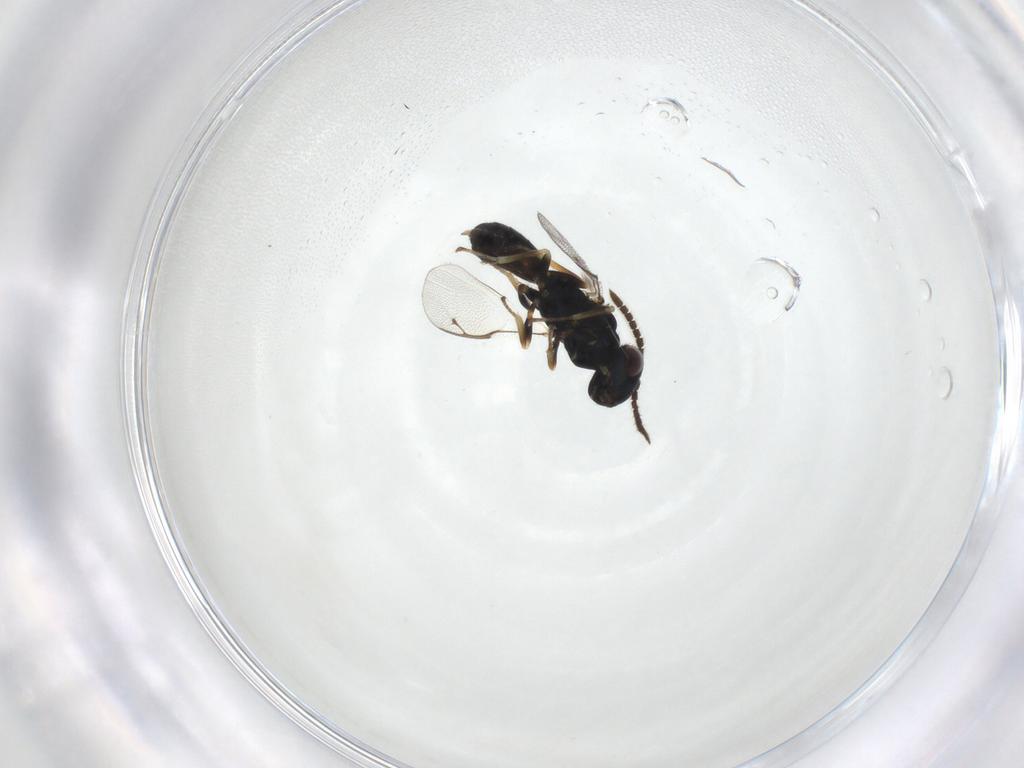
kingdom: Animalia
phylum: Arthropoda
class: Insecta
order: Hymenoptera
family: Pteromalidae
